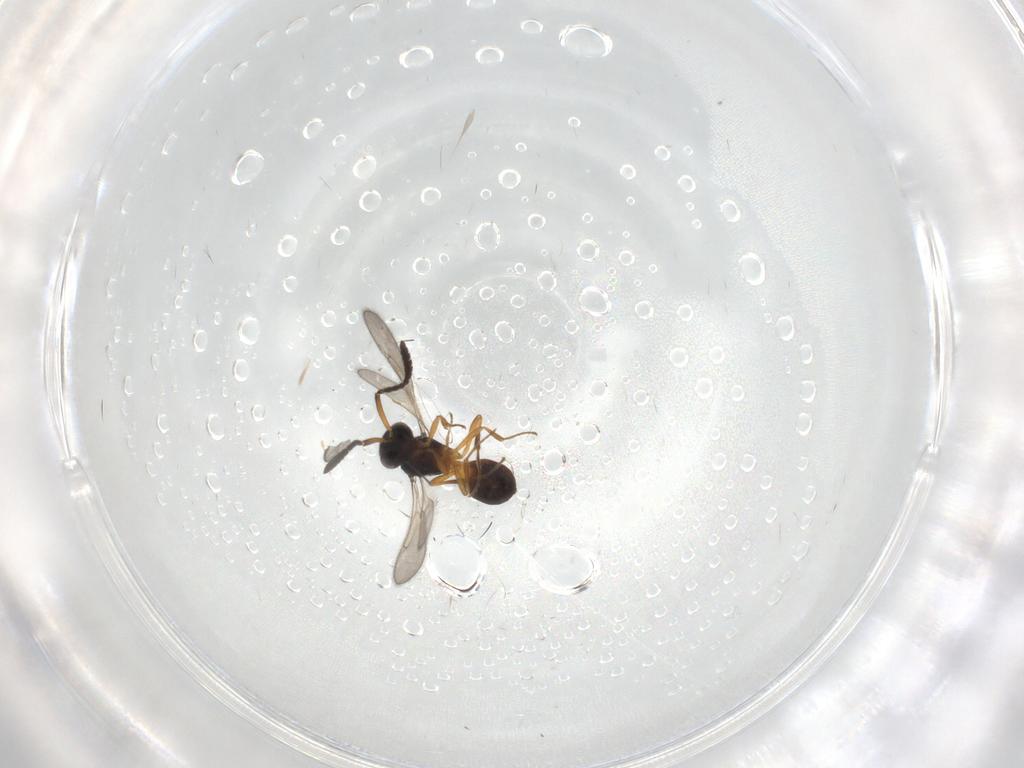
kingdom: Animalia
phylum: Arthropoda
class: Insecta
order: Hymenoptera
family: Scelionidae
